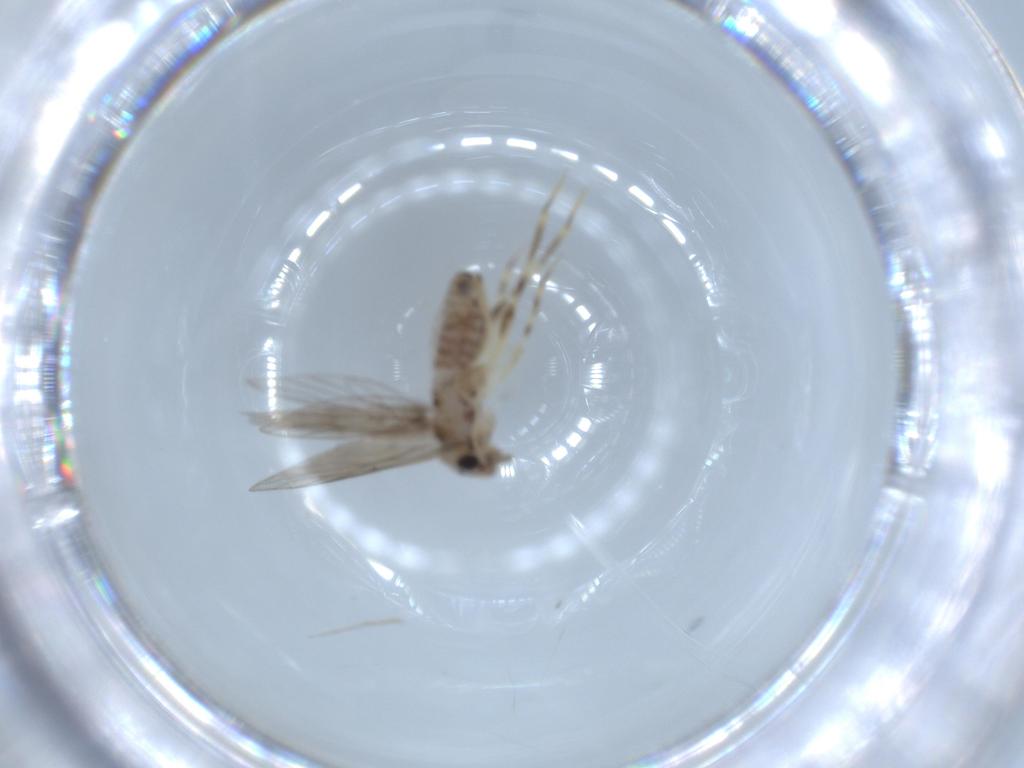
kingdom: Animalia
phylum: Arthropoda
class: Insecta
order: Psocodea
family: Lepidopsocidae
